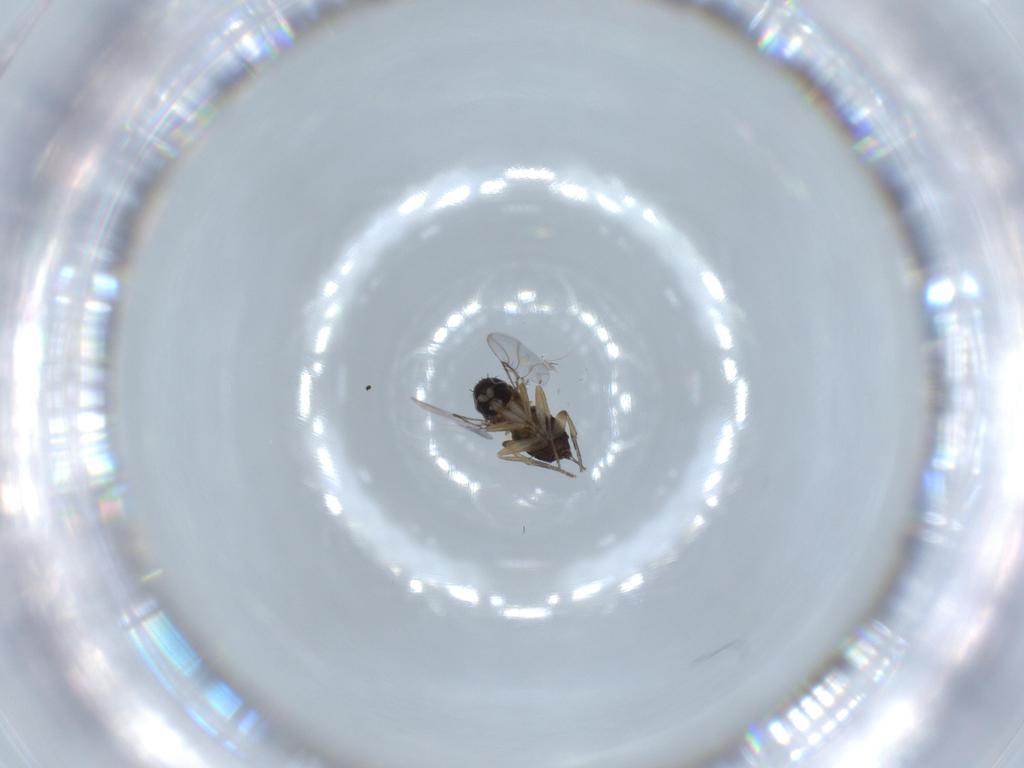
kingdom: Animalia
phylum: Arthropoda
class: Insecta
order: Diptera
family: Phoridae
